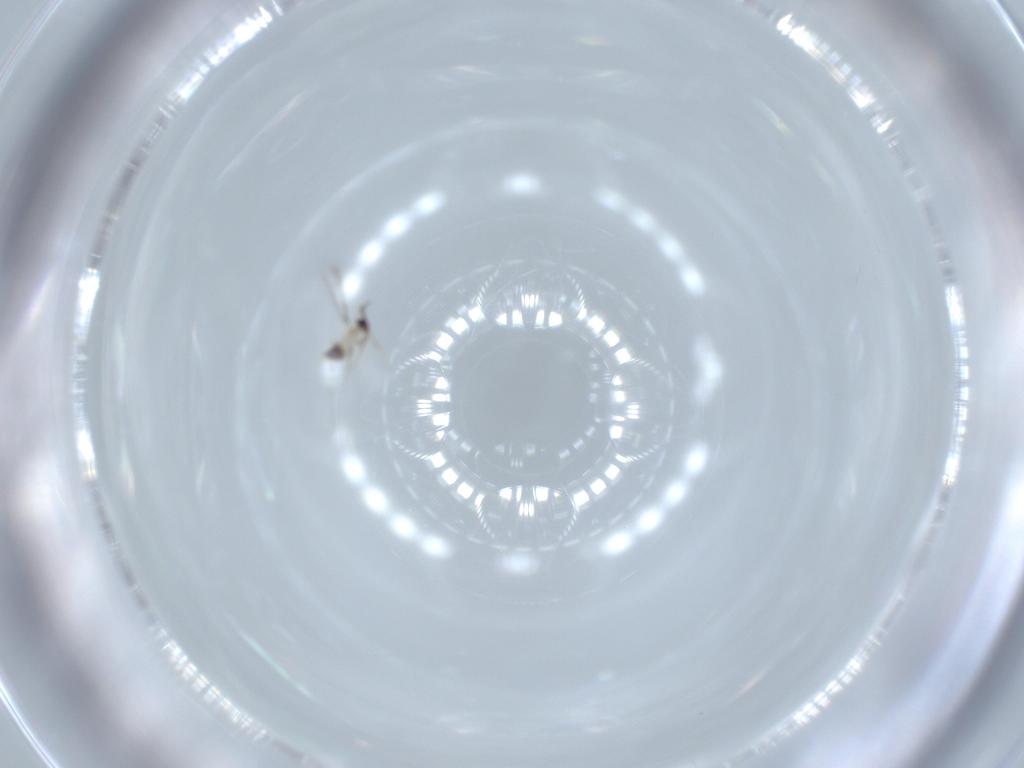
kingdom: Animalia
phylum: Arthropoda
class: Insecta
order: Hymenoptera
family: Mymaridae
